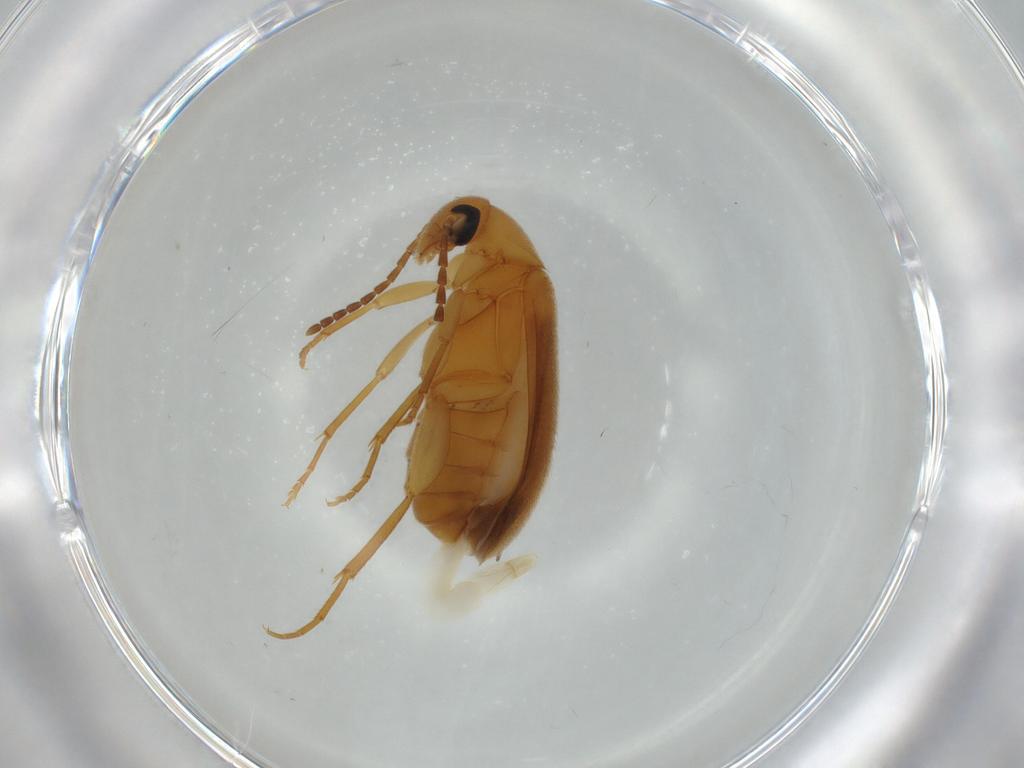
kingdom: Animalia
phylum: Arthropoda
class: Insecta
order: Coleoptera
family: Scraptiidae
